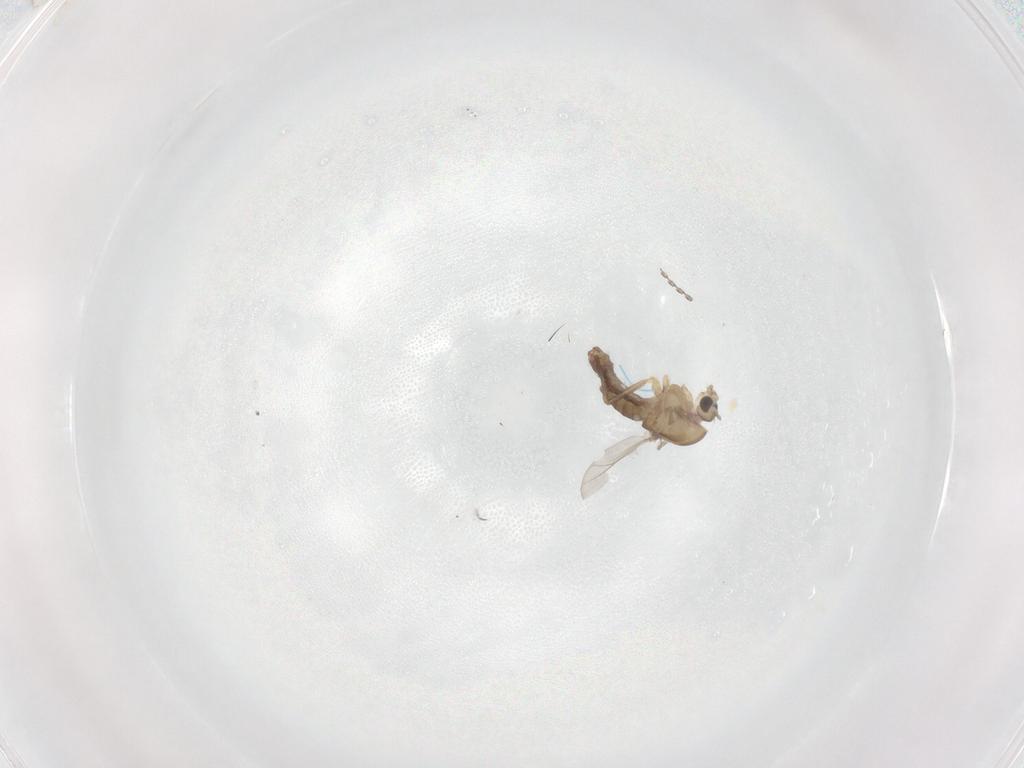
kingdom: Animalia
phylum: Arthropoda
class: Insecta
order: Diptera
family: Chironomidae
